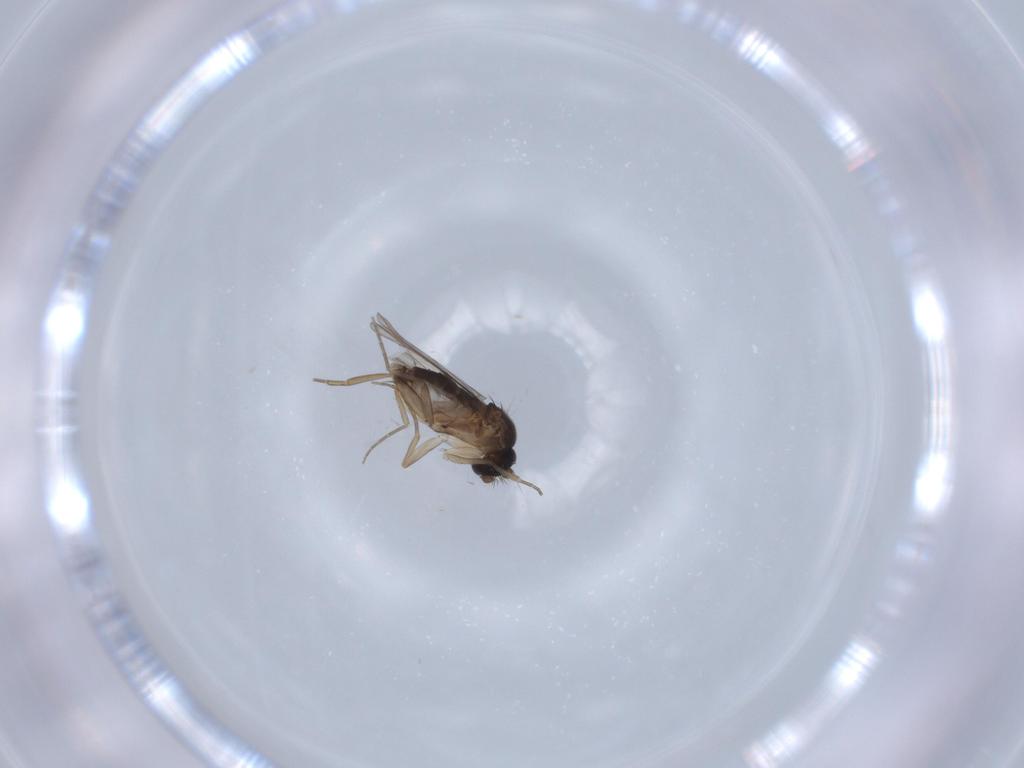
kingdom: Animalia
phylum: Arthropoda
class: Insecta
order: Diptera
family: Phoridae
